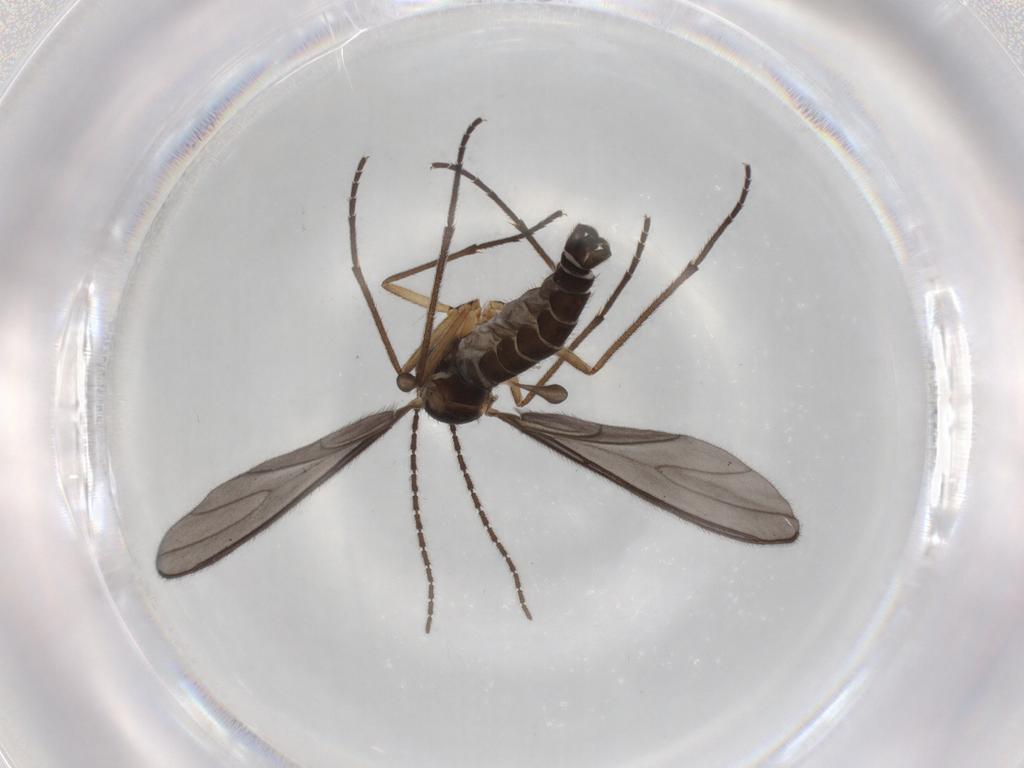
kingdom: Animalia
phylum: Arthropoda
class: Insecta
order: Diptera
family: Sciaridae
